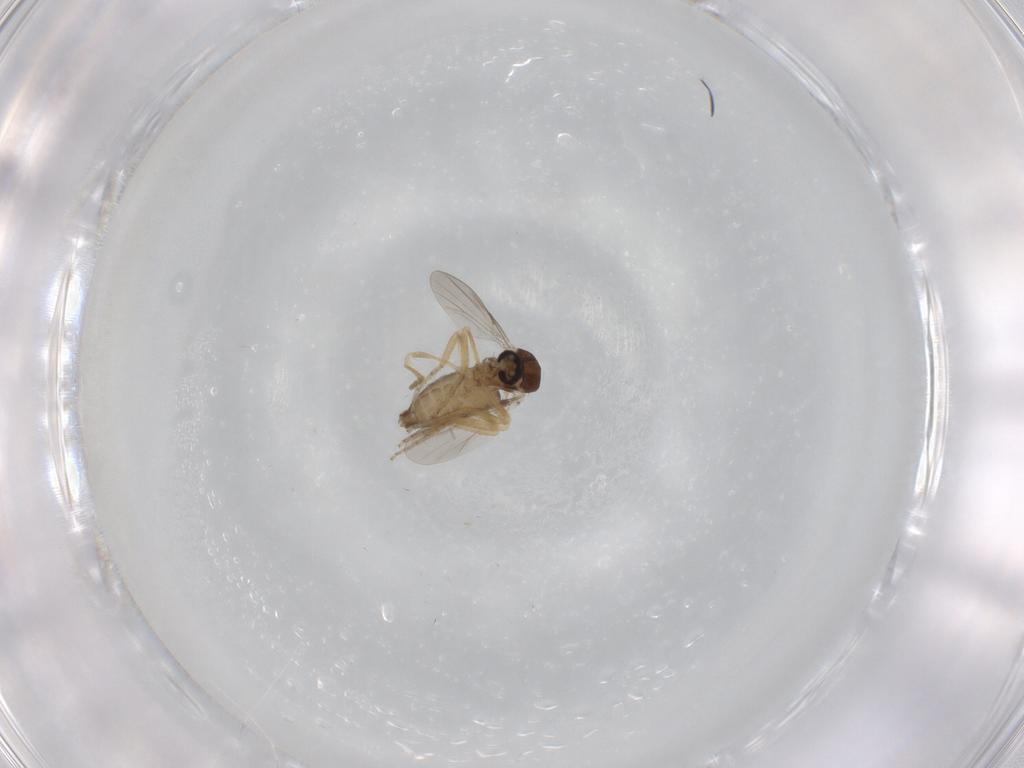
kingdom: Animalia
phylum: Arthropoda
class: Insecta
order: Diptera
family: Ceratopogonidae
